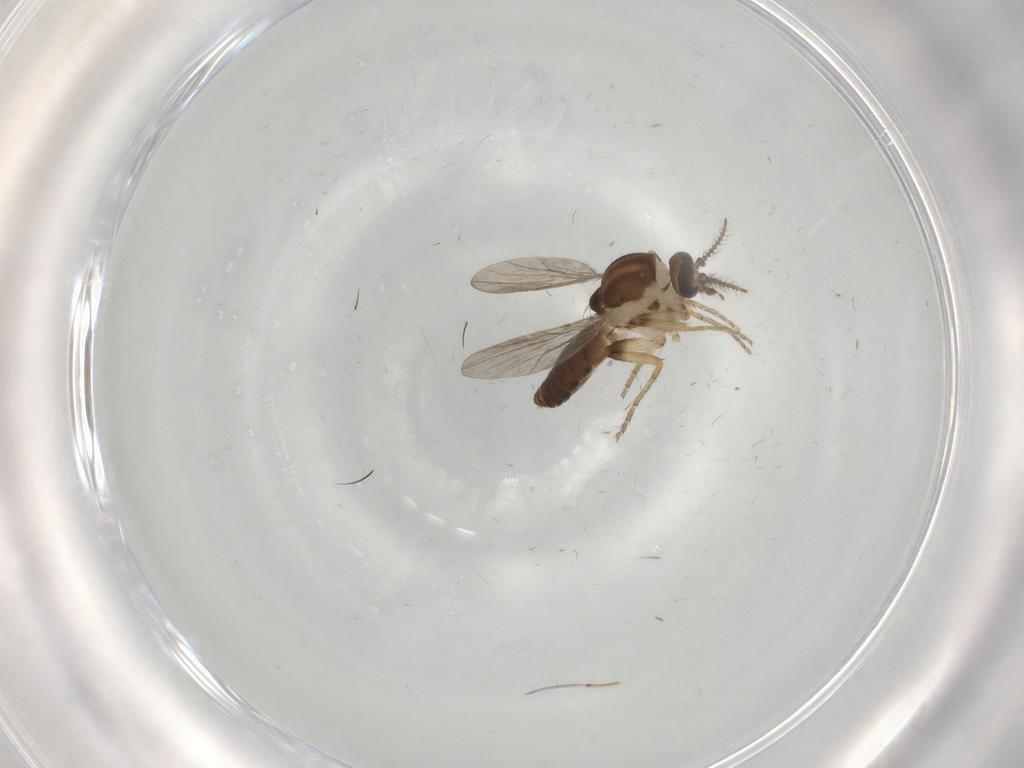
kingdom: Animalia
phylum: Arthropoda
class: Insecta
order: Diptera
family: Ceratopogonidae
